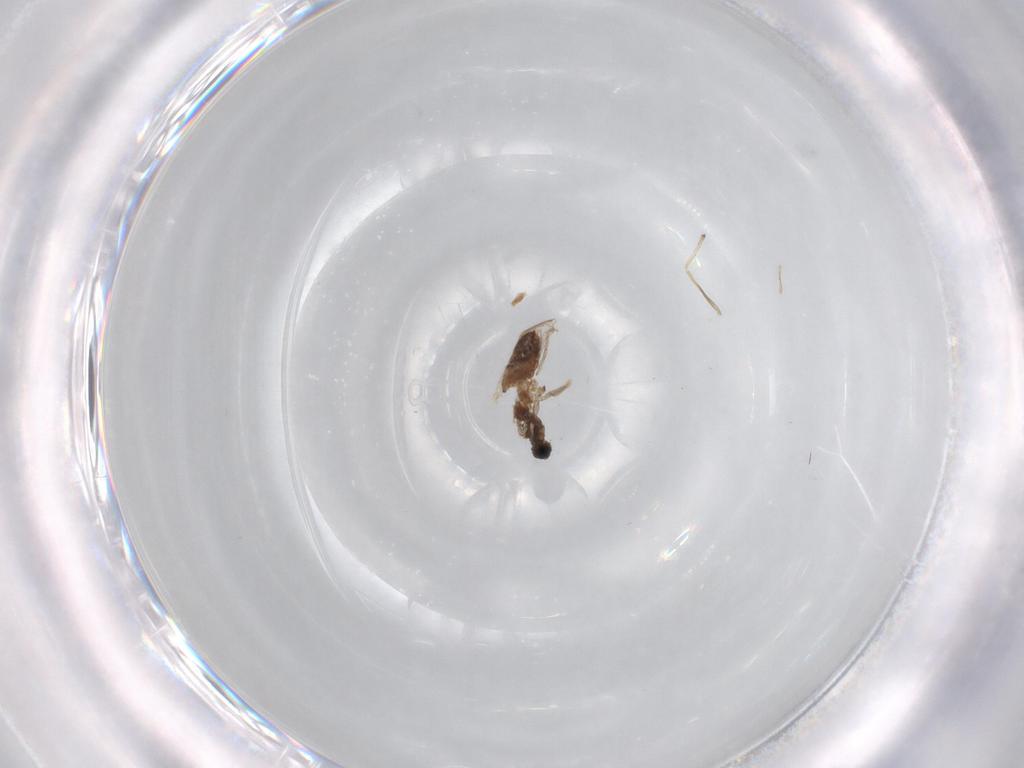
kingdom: Animalia
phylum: Arthropoda
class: Insecta
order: Diptera
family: Chironomidae
